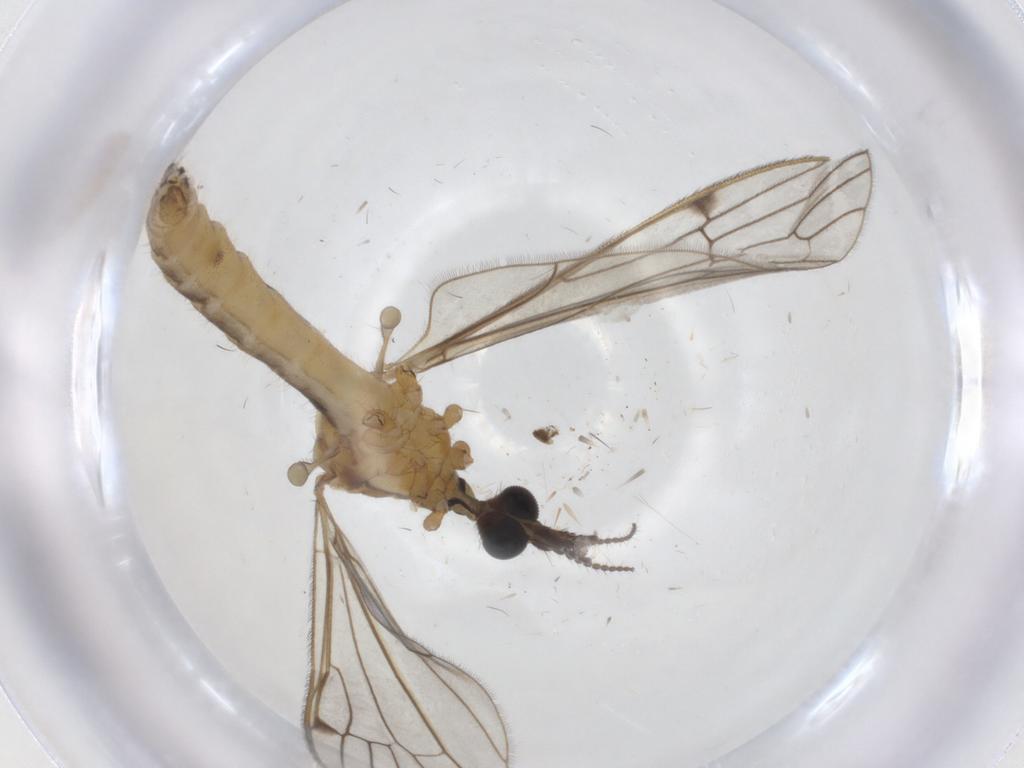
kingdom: Animalia
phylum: Arthropoda
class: Insecta
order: Diptera
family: Sciaridae
